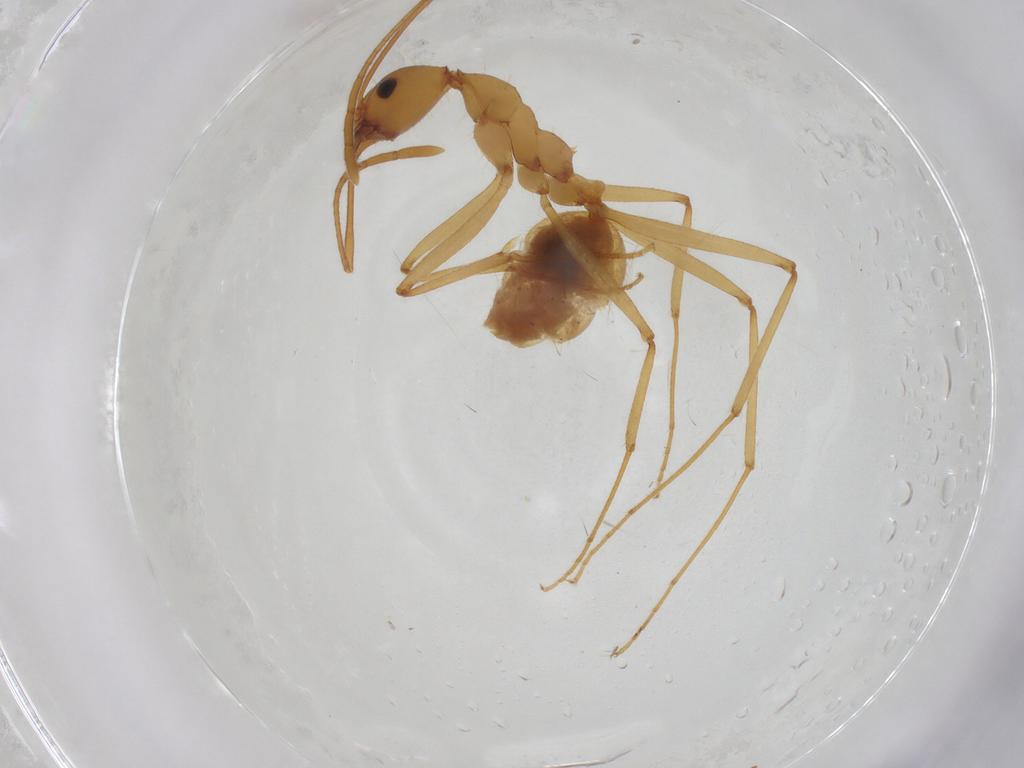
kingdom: Animalia
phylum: Arthropoda
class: Insecta
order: Hymenoptera
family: Formicidae
